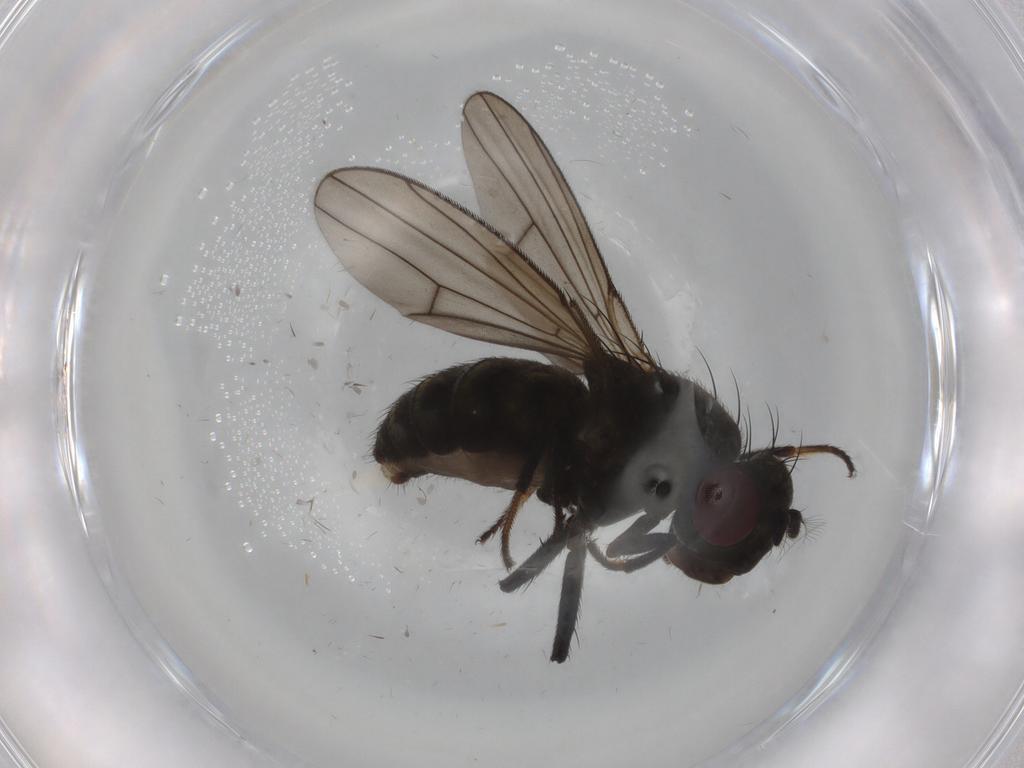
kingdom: Animalia
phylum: Arthropoda
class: Insecta
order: Diptera
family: Ephydridae
